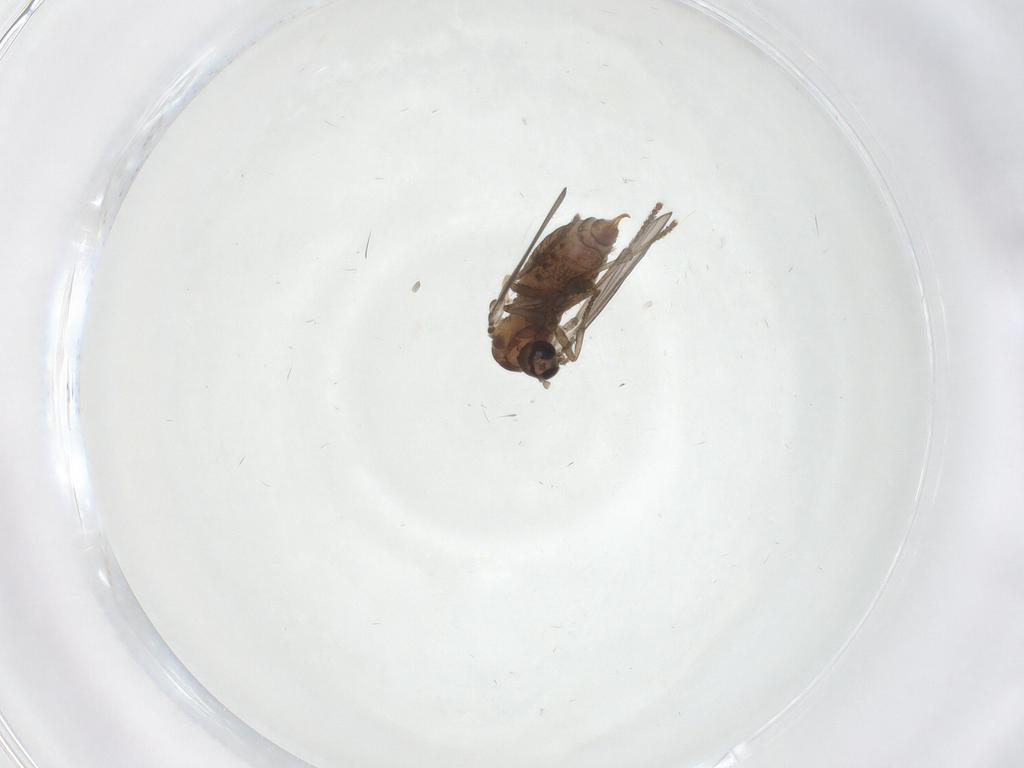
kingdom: Animalia
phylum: Arthropoda
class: Insecta
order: Diptera
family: Psychodidae
